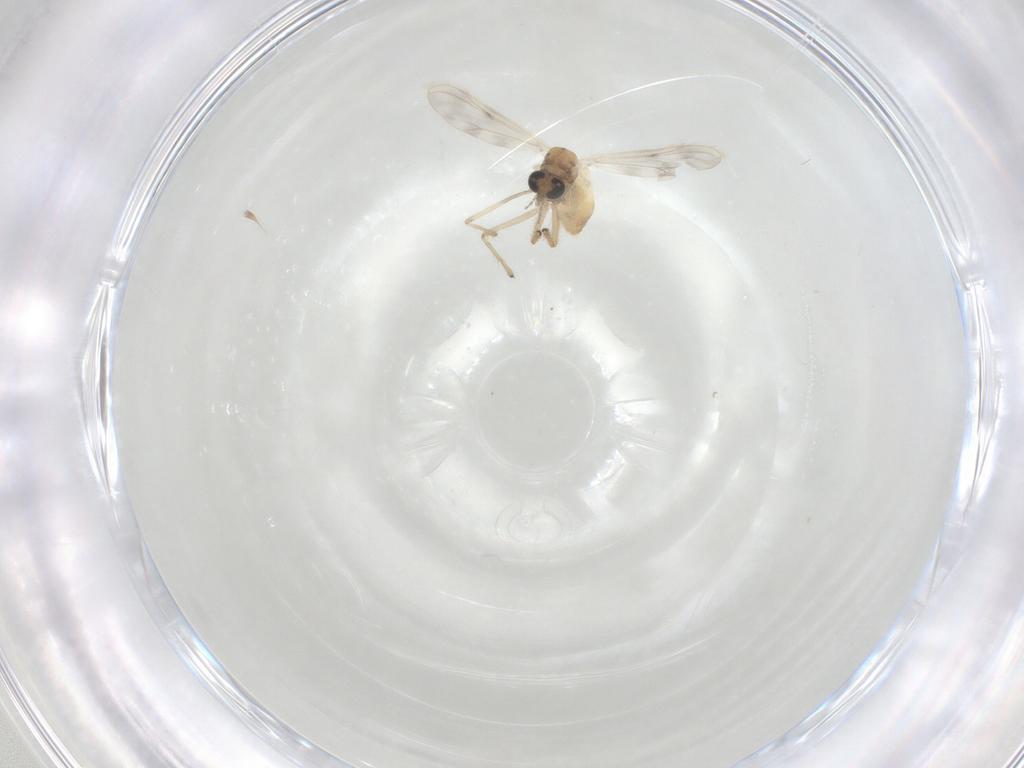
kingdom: Animalia
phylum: Arthropoda
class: Insecta
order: Diptera
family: Chironomidae
